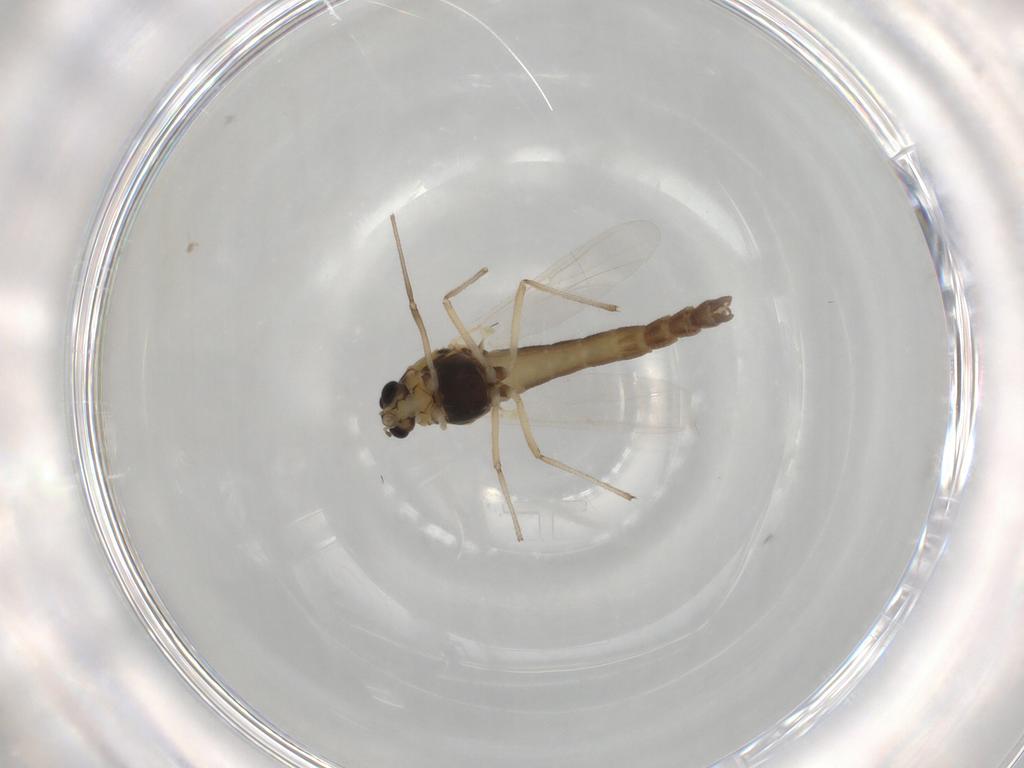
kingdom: Animalia
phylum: Arthropoda
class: Insecta
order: Diptera
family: Chironomidae
